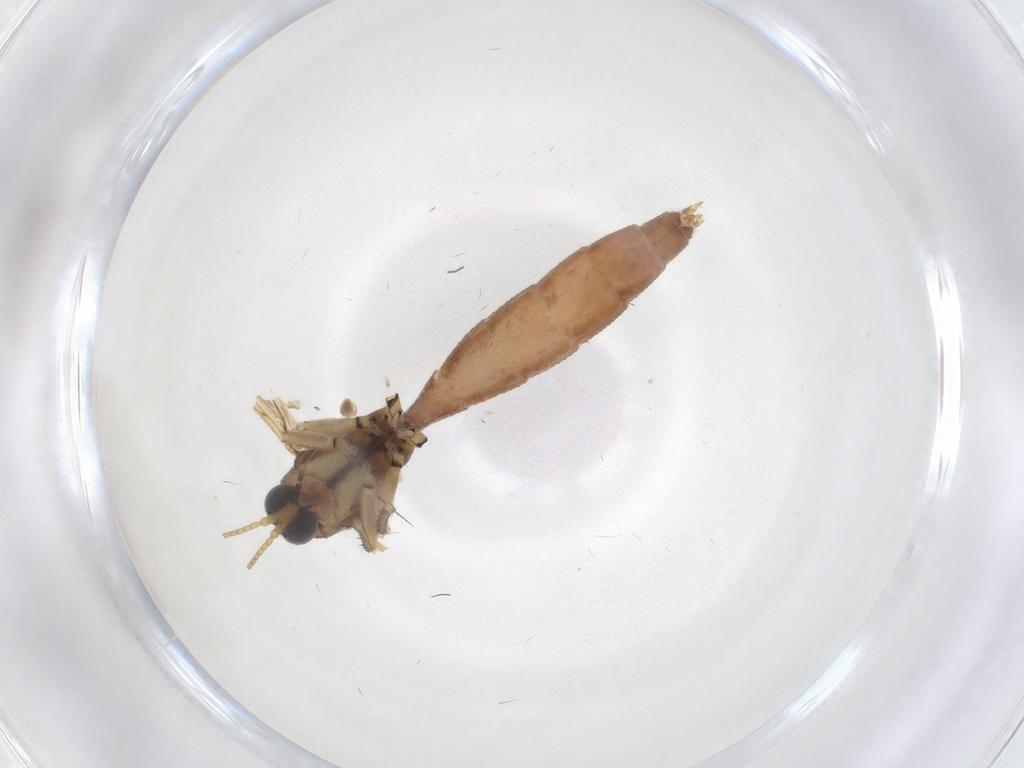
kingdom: Animalia
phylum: Arthropoda
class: Insecta
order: Diptera
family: Mycetophilidae
